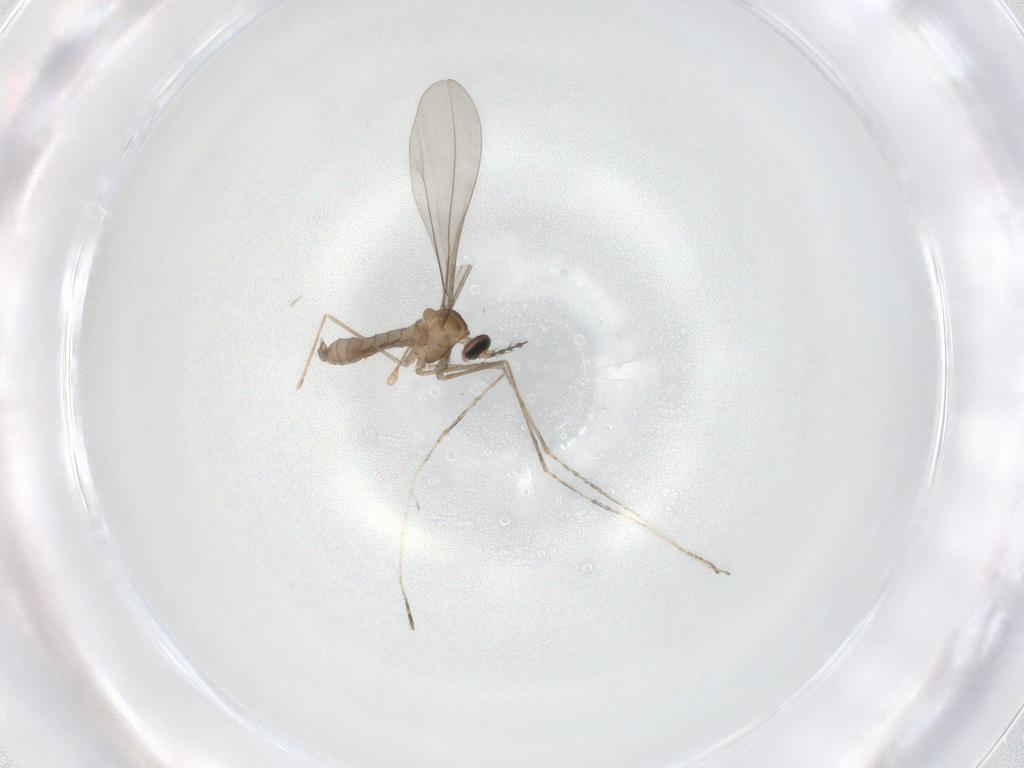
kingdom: Animalia
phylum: Arthropoda
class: Insecta
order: Diptera
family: Cecidomyiidae
